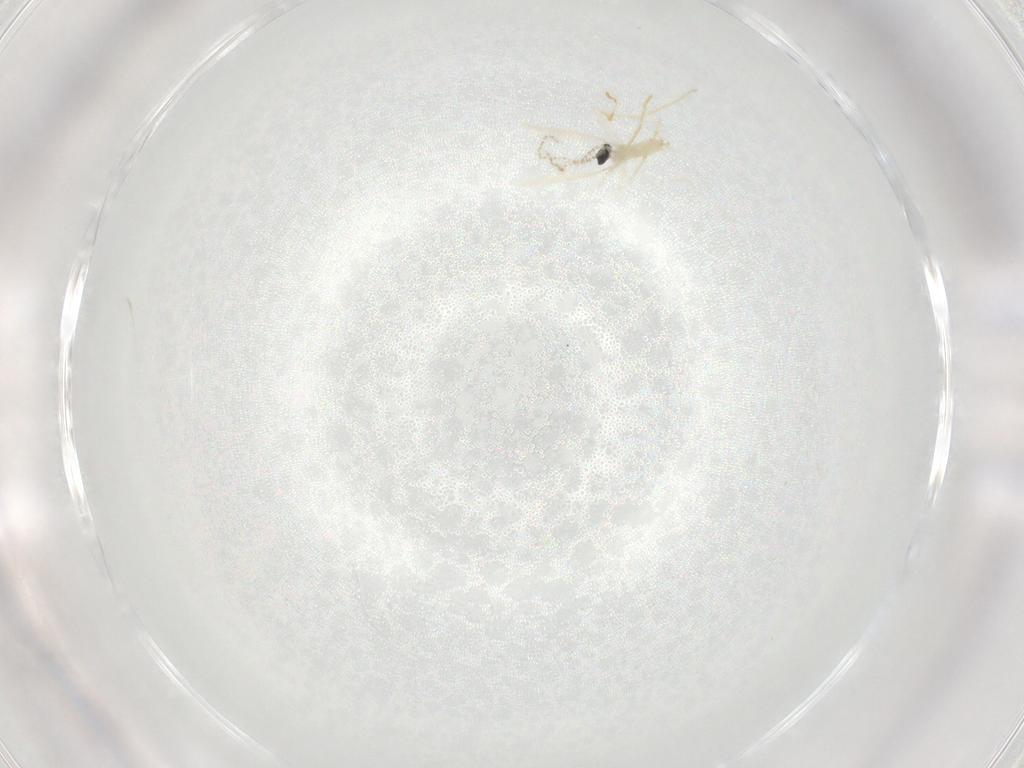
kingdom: Animalia
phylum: Arthropoda
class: Insecta
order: Diptera
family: Cecidomyiidae
